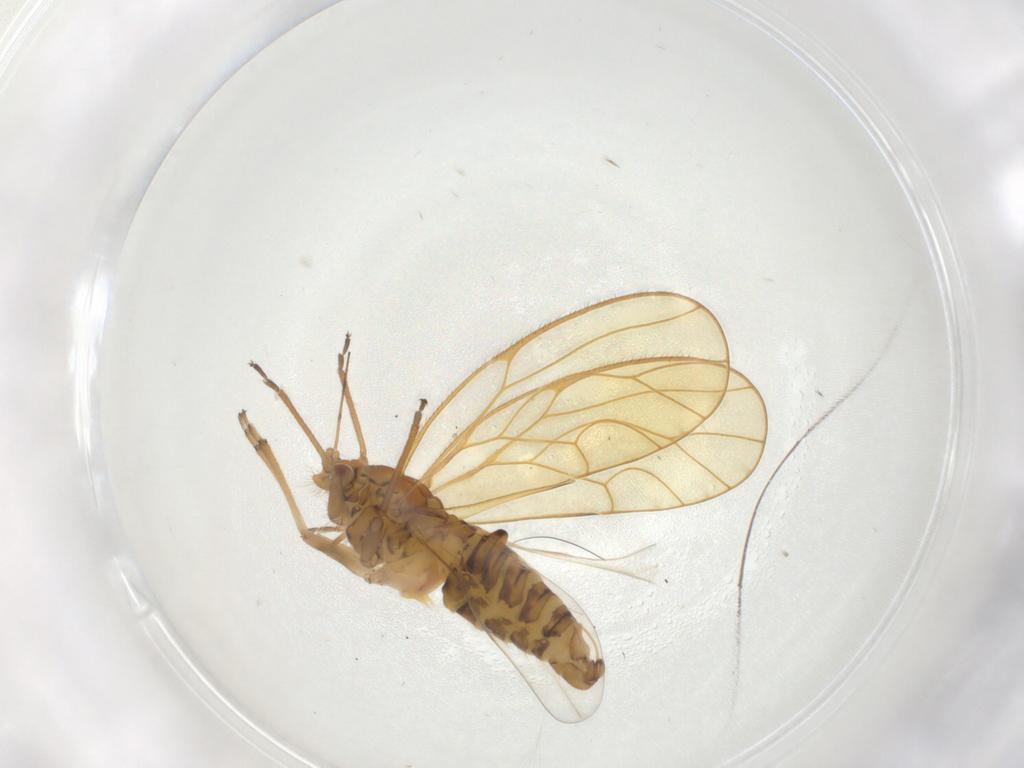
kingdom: Animalia
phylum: Arthropoda
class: Insecta
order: Hemiptera
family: Psyllidae
